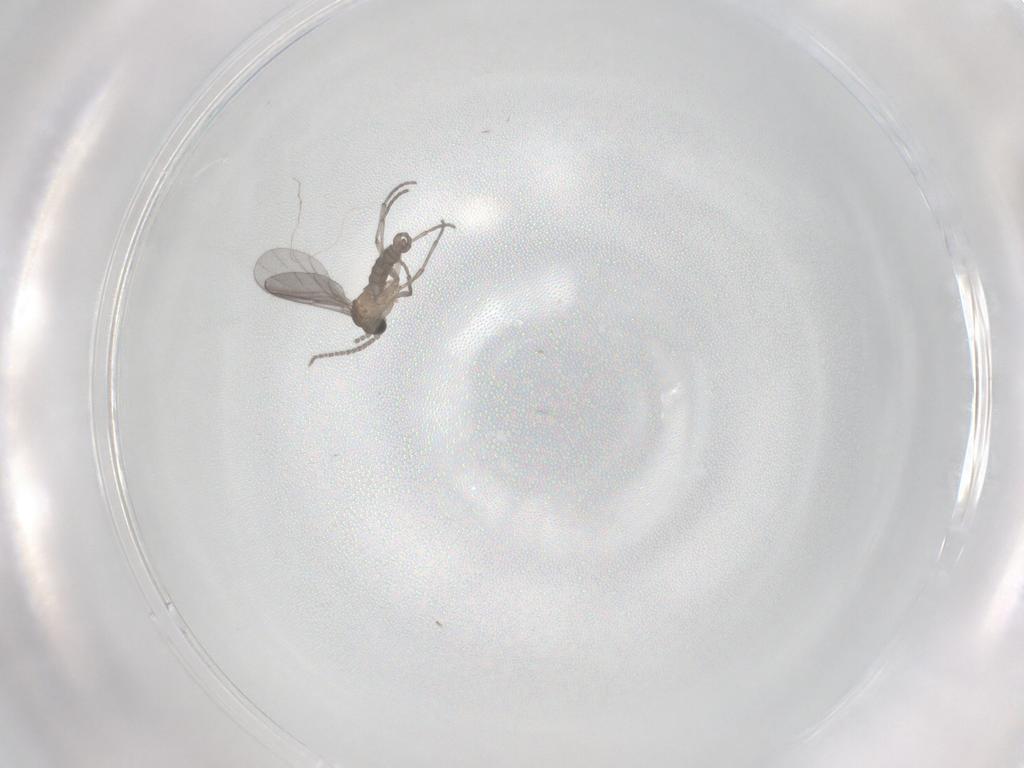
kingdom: Animalia
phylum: Arthropoda
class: Insecta
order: Diptera
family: Sciaridae
